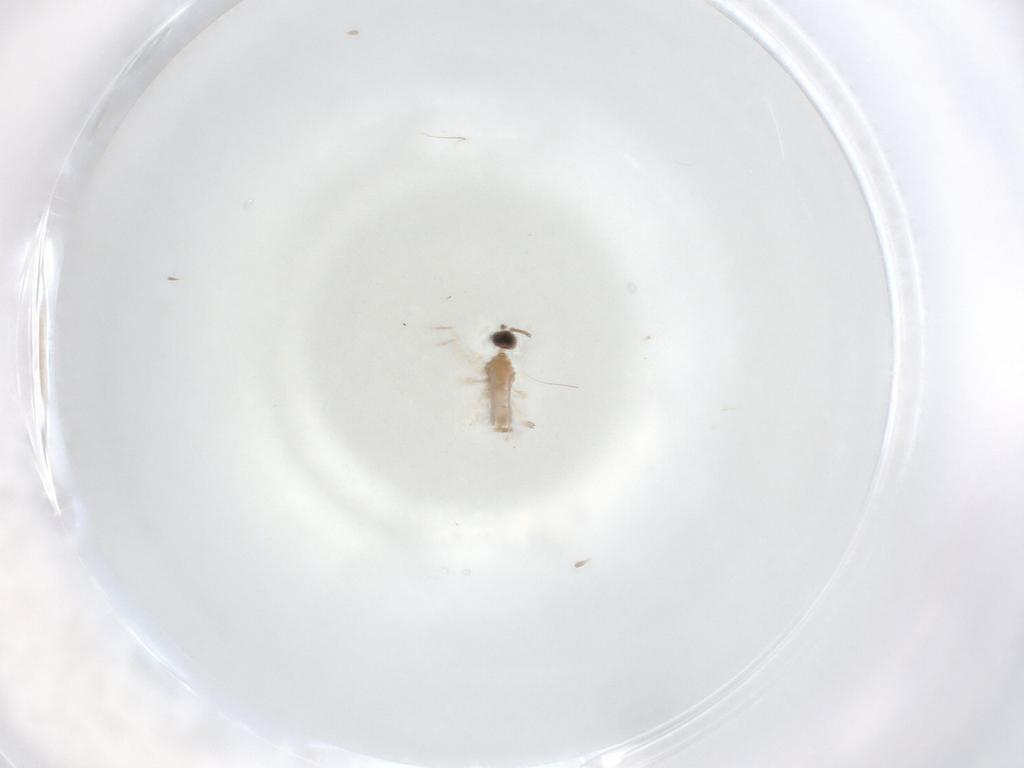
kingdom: Animalia
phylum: Arthropoda
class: Insecta
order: Diptera
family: Cecidomyiidae
